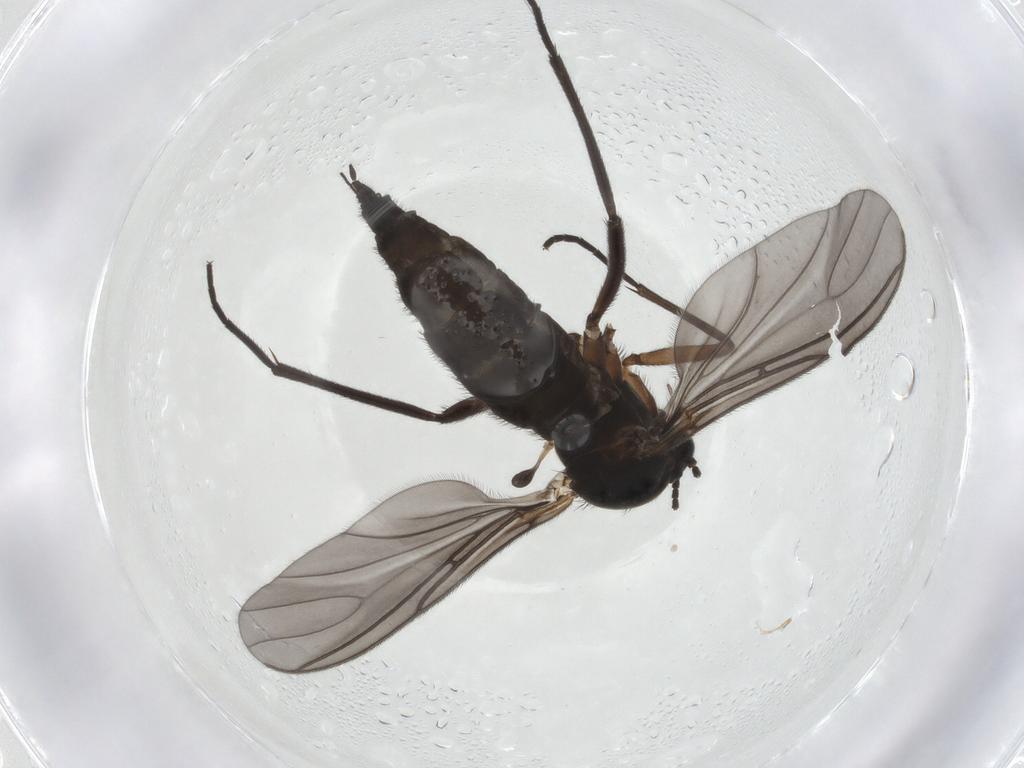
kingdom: Animalia
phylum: Arthropoda
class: Insecta
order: Diptera
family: Sciaridae
